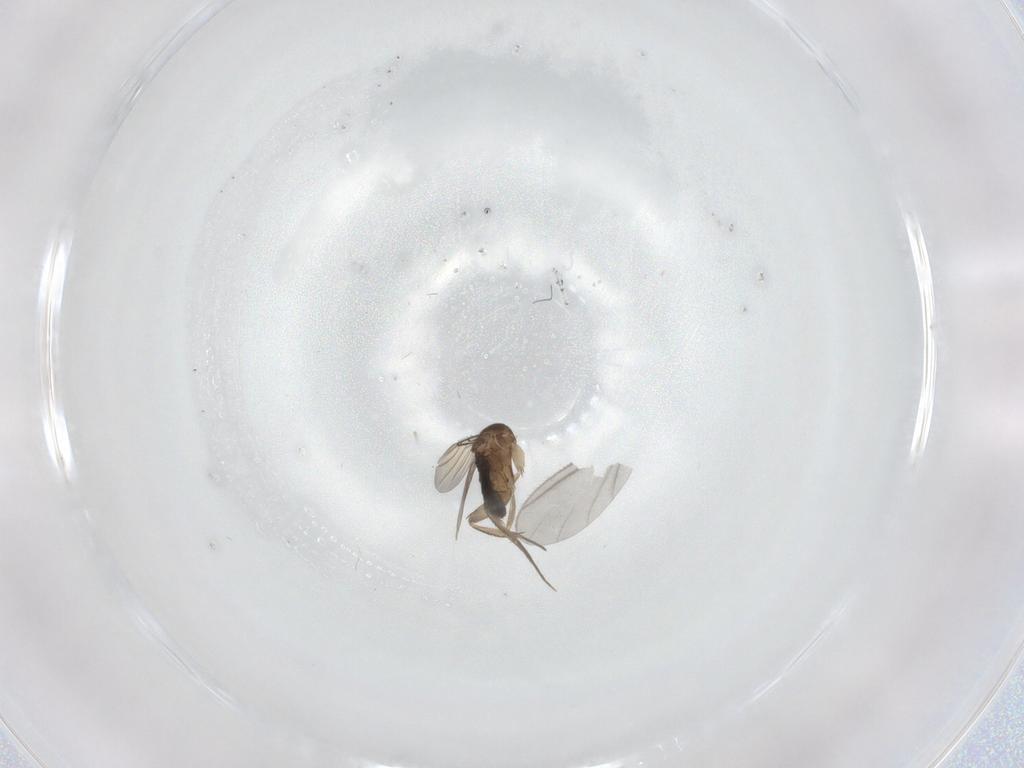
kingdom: Animalia
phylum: Arthropoda
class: Insecta
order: Diptera
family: Phoridae
